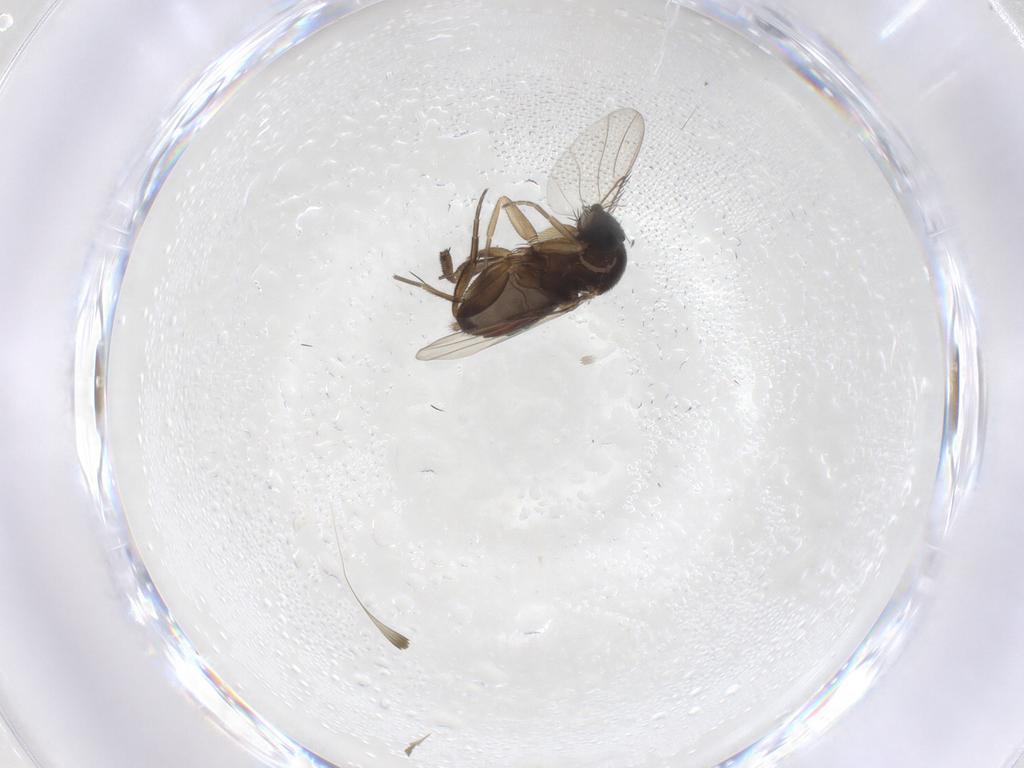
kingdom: Animalia
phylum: Arthropoda
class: Insecta
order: Diptera
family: Phoridae
